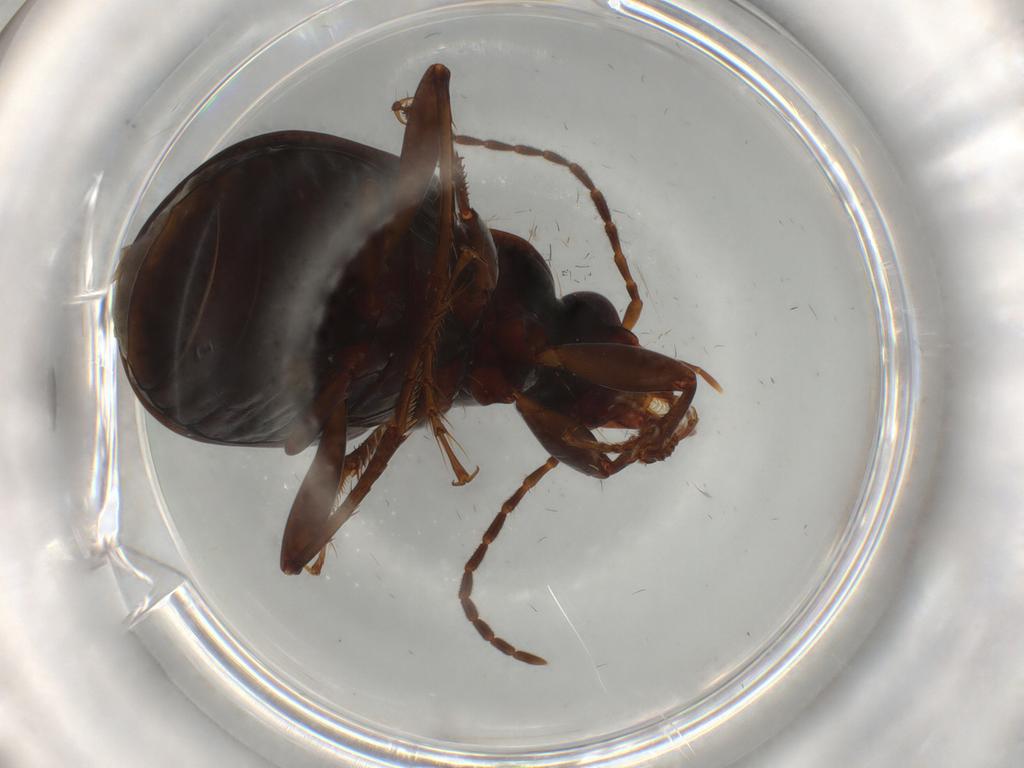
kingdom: Animalia
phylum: Arthropoda
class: Insecta
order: Coleoptera
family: Carabidae
